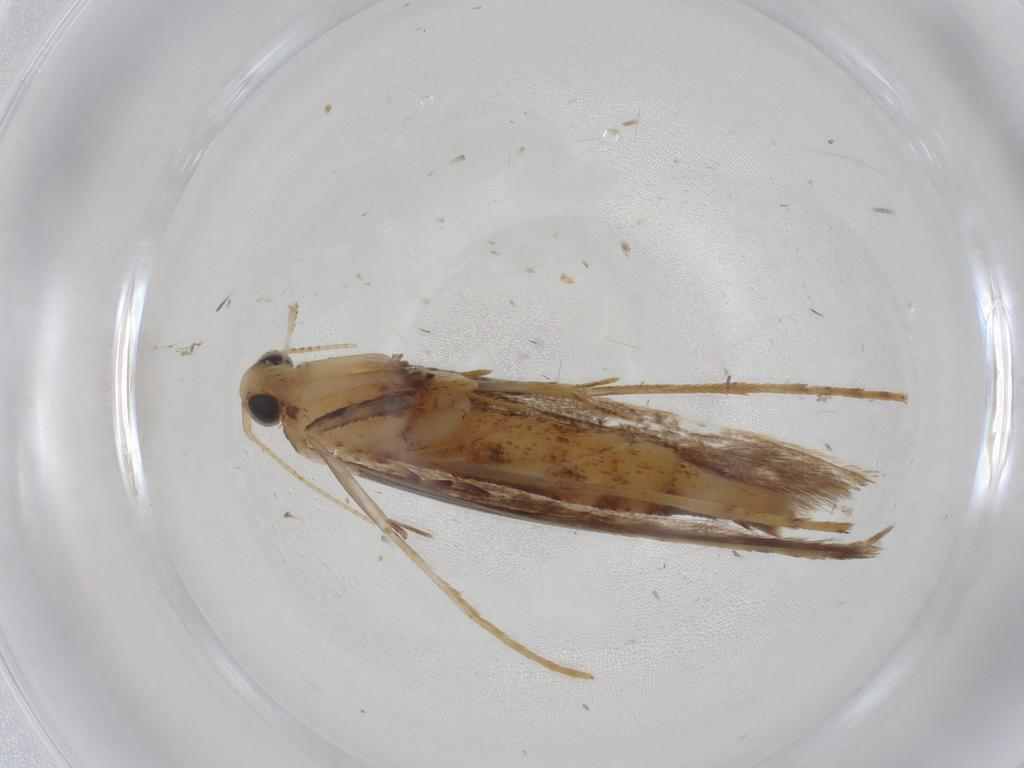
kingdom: Animalia
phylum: Arthropoda
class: Insecta
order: Lepidoptera
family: Gracillariidae
